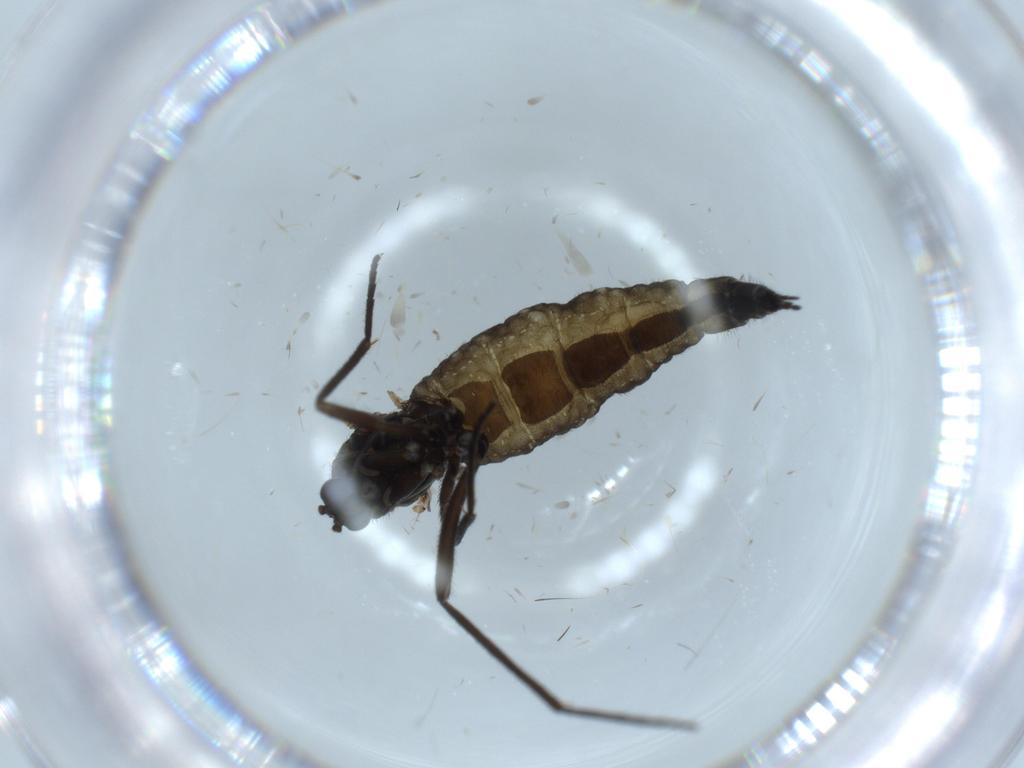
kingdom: Animalia
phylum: Arthropoda
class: Insecta
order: Diptera
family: Sciaridae
